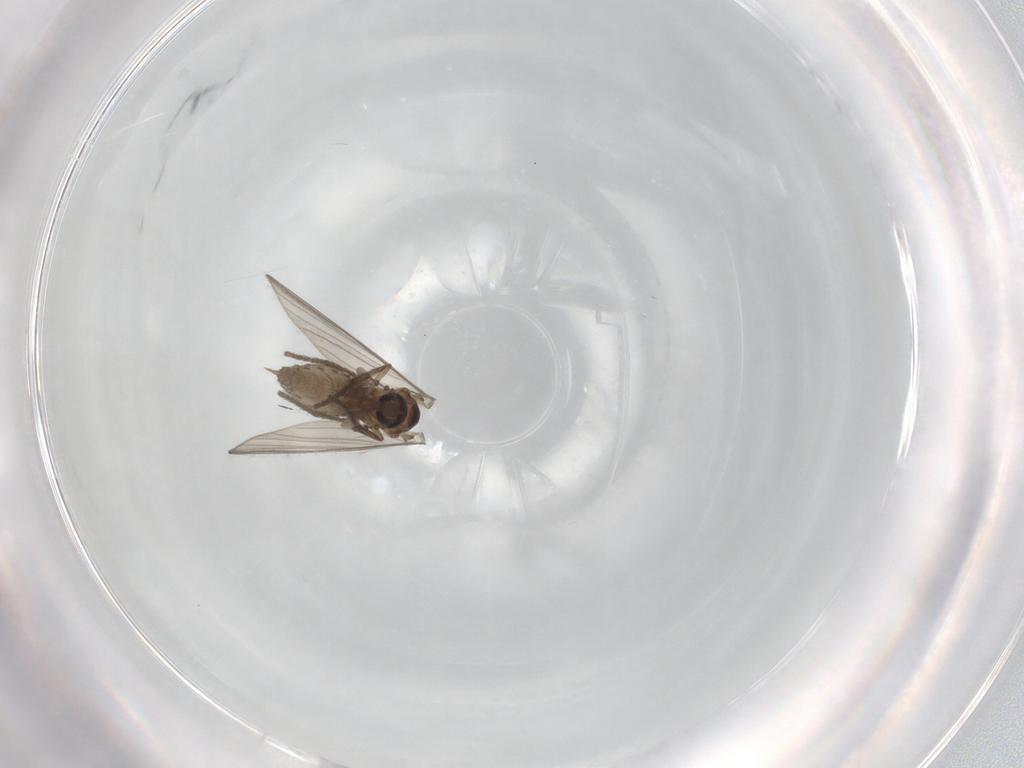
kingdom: Animalia
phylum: Arthropoda
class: Insecta
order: Diptera
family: Psychodidae
